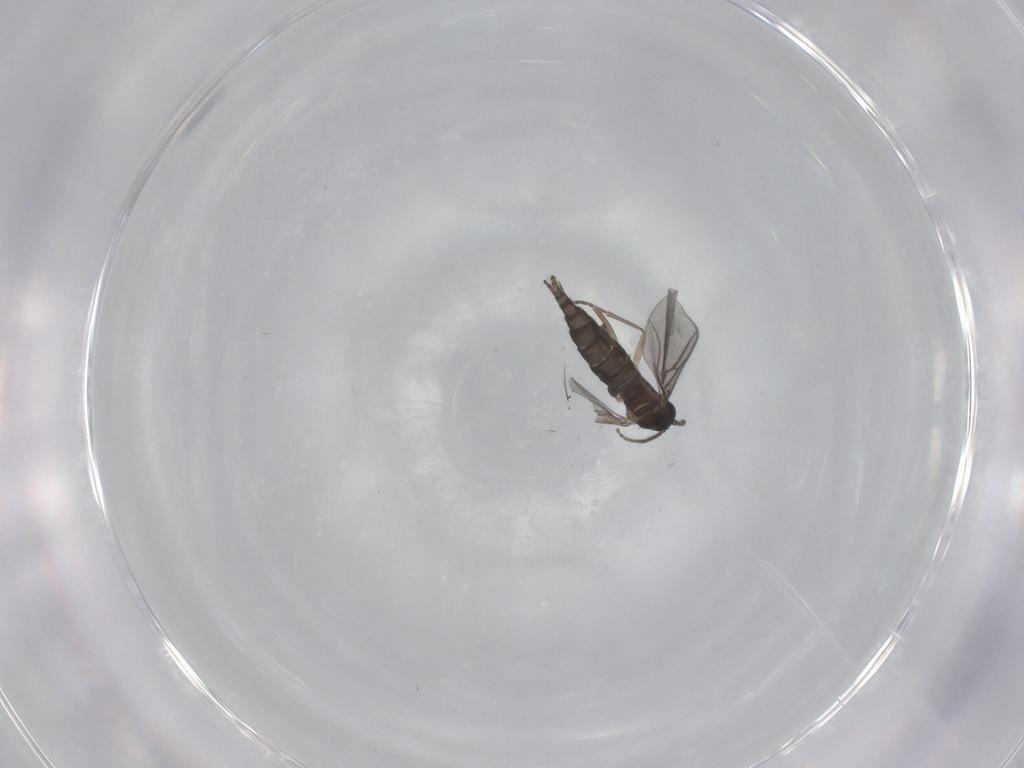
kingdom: Animalia
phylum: Arthropoda
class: Insecta
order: Diptera
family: Sciaridae
